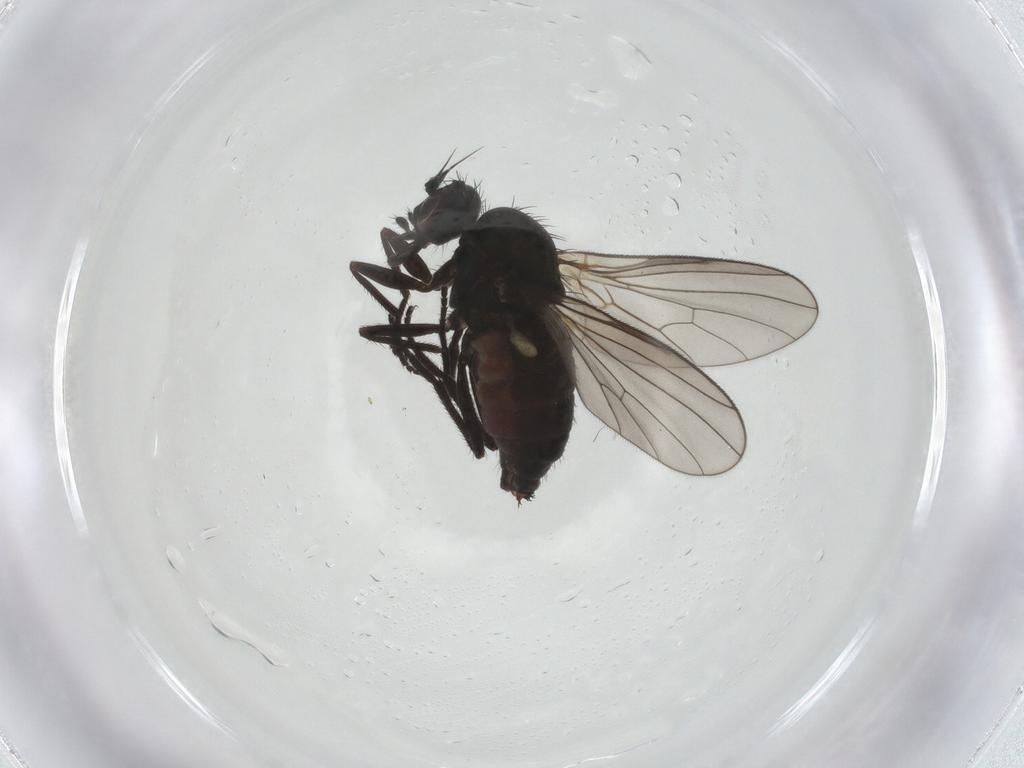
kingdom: Animalia
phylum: Arthropoda
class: Insecta
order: Diptera
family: Dolichopodidae
